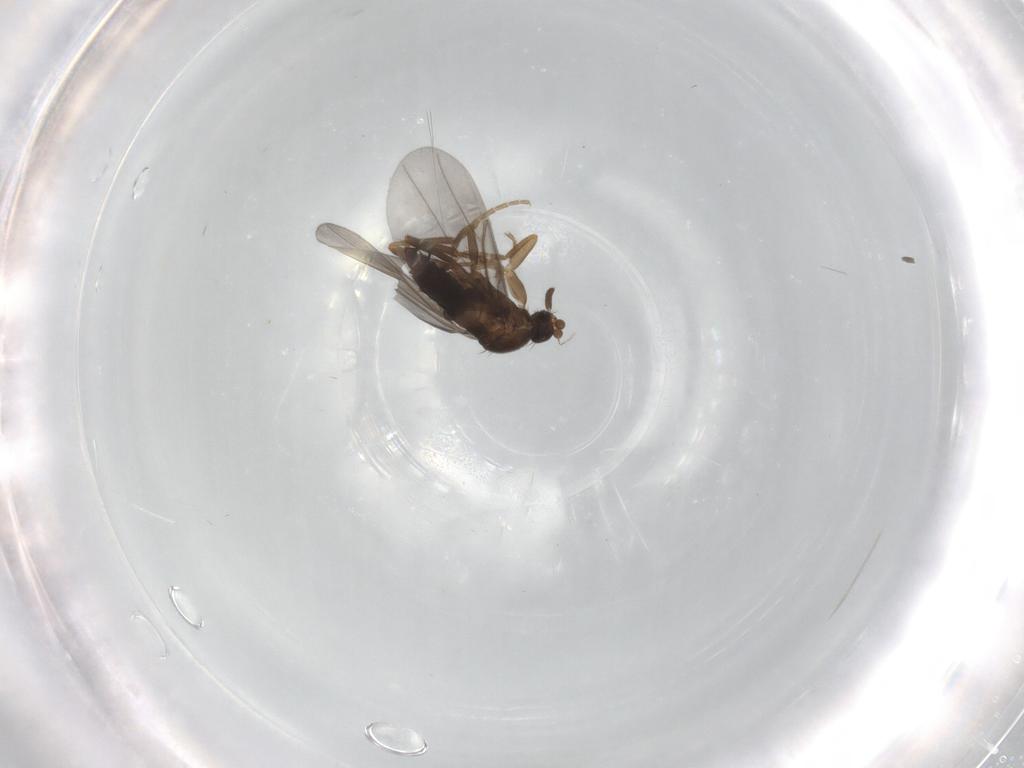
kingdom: Animalia
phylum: Arthropoda
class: Insecta
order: Diptera
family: Phoridae
